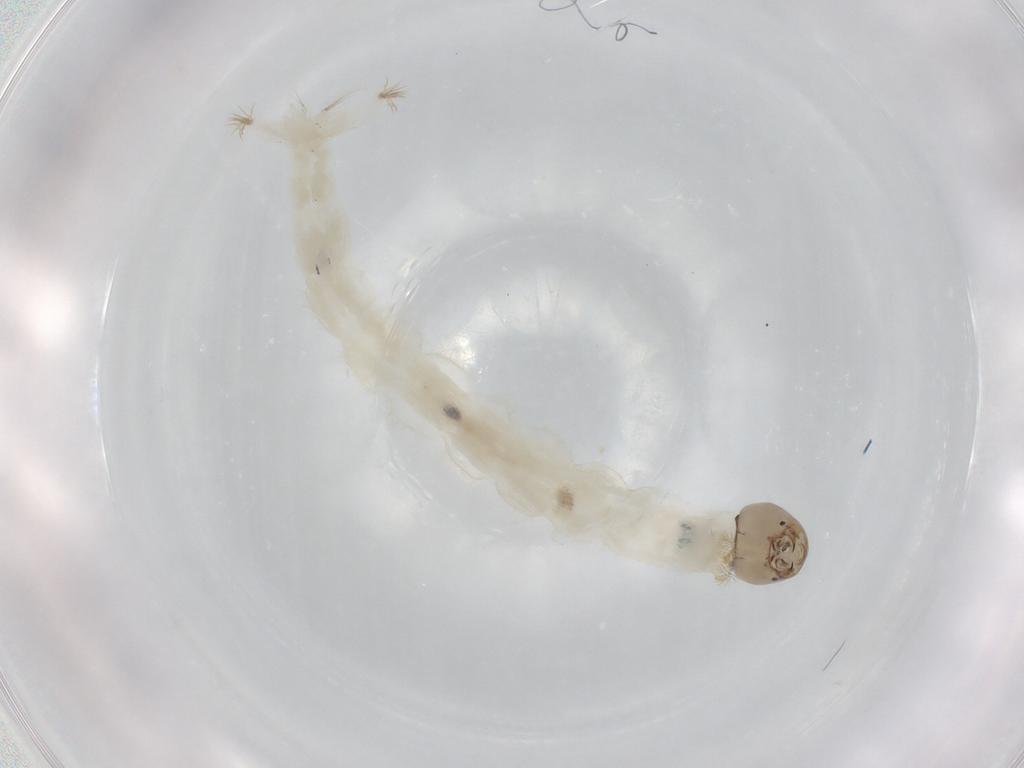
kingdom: Animalia
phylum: Arthropoda
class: Insecta
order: Diptera
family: Chironomidae
